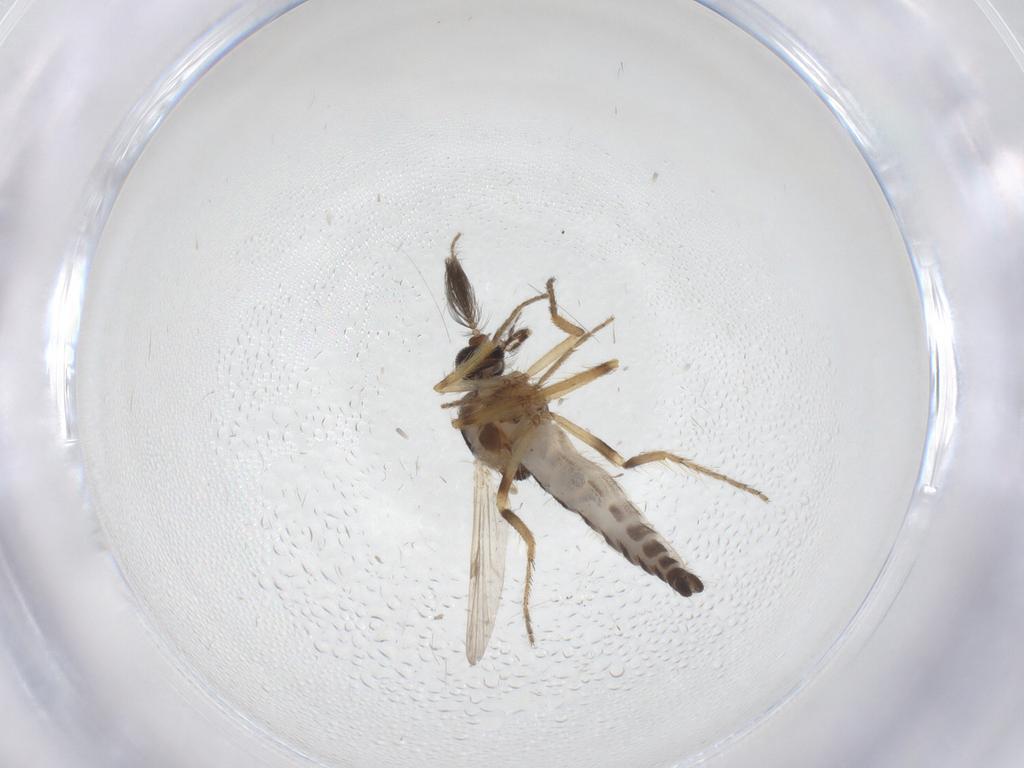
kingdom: Animalia
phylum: Arthropoda
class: Insecta
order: Diptera
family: Ceratopogonidae
